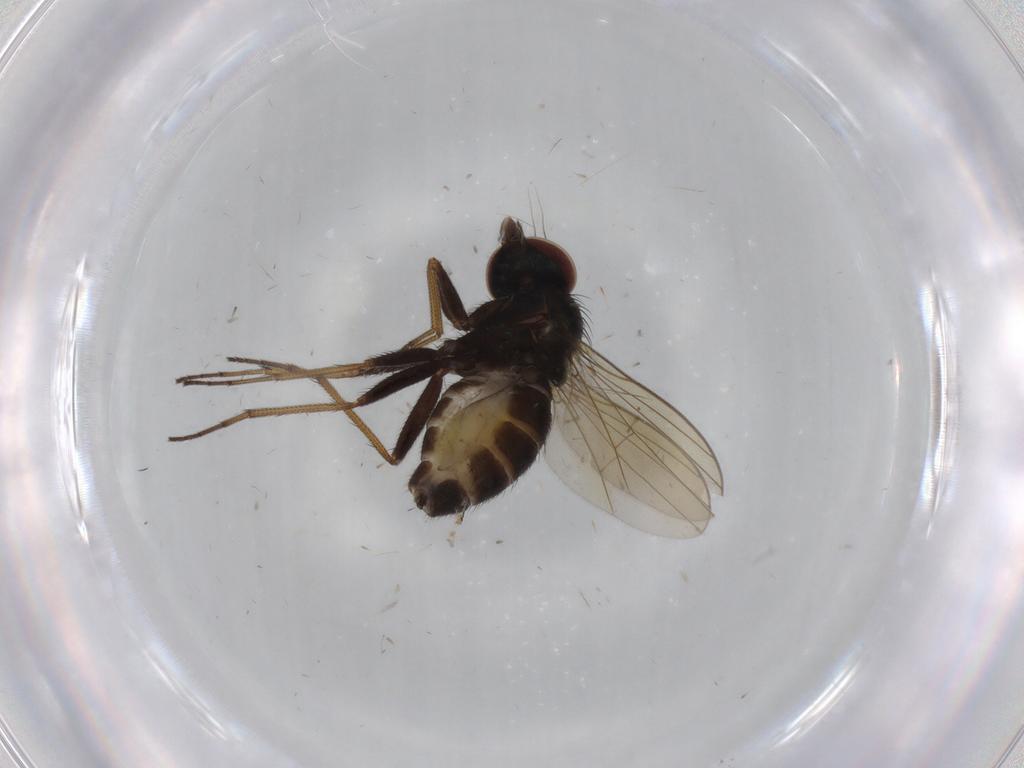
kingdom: Animalia
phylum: Arthropoda
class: Insecta
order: Diptera
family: Dolichopodidae
